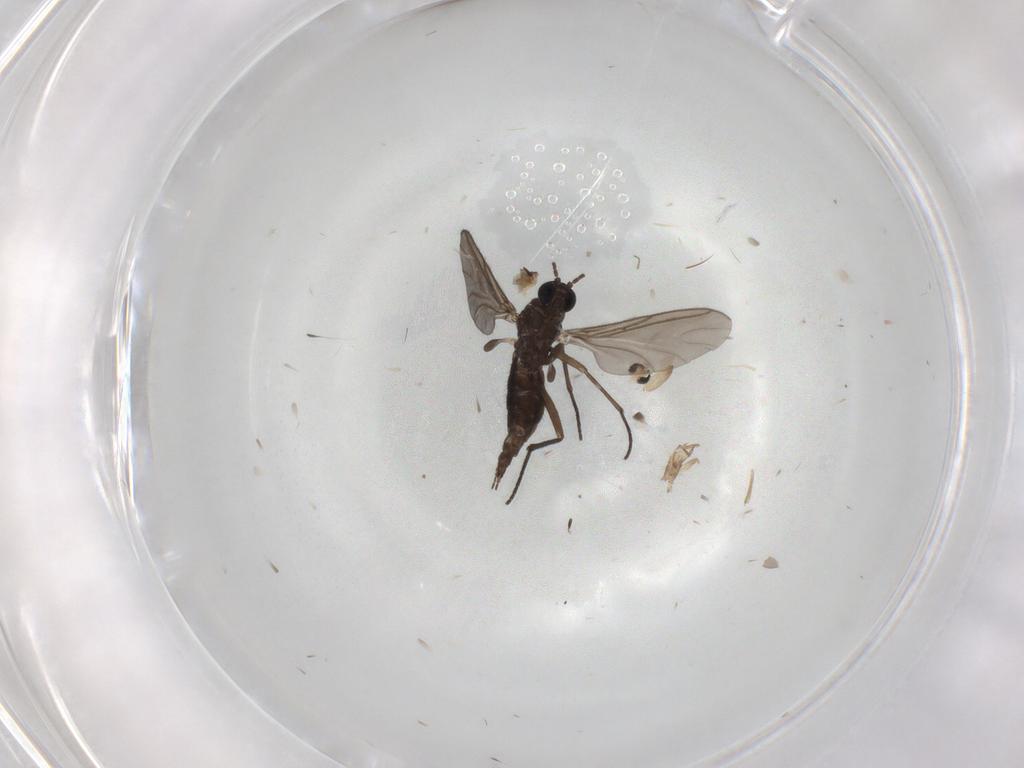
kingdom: Animalia
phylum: Arthropoda
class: Insecta
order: Diptera
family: Sciaridae
